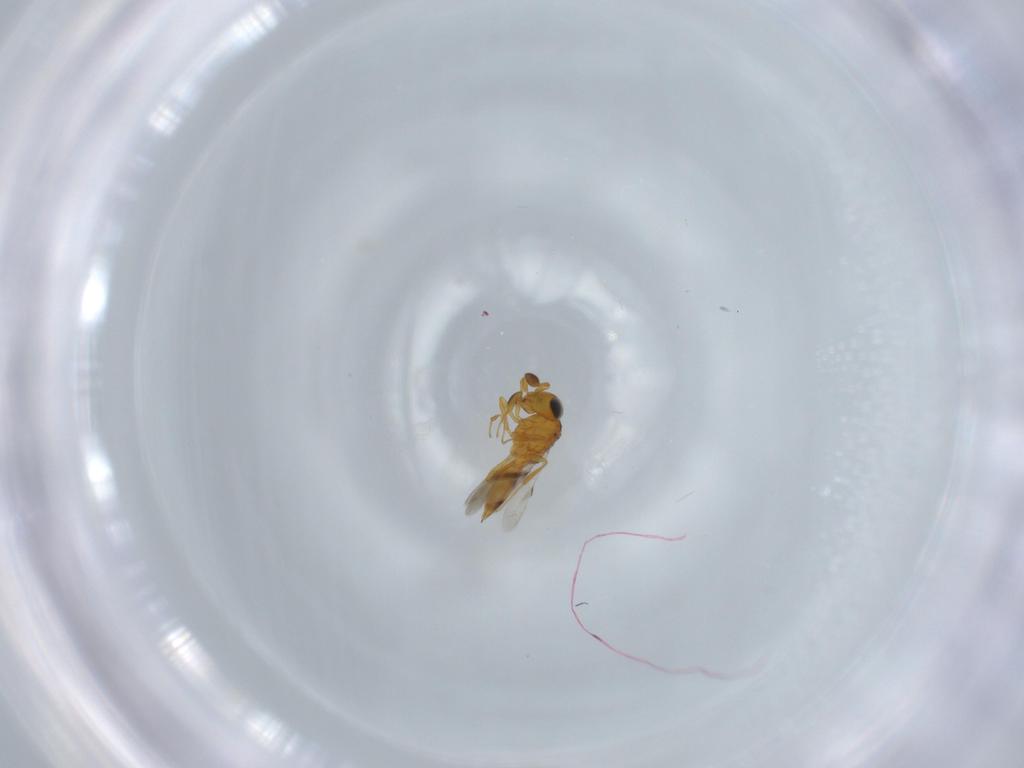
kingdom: Animalia
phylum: Arthropoda
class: Insecta
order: Hymenoptera
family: Scelionidae
